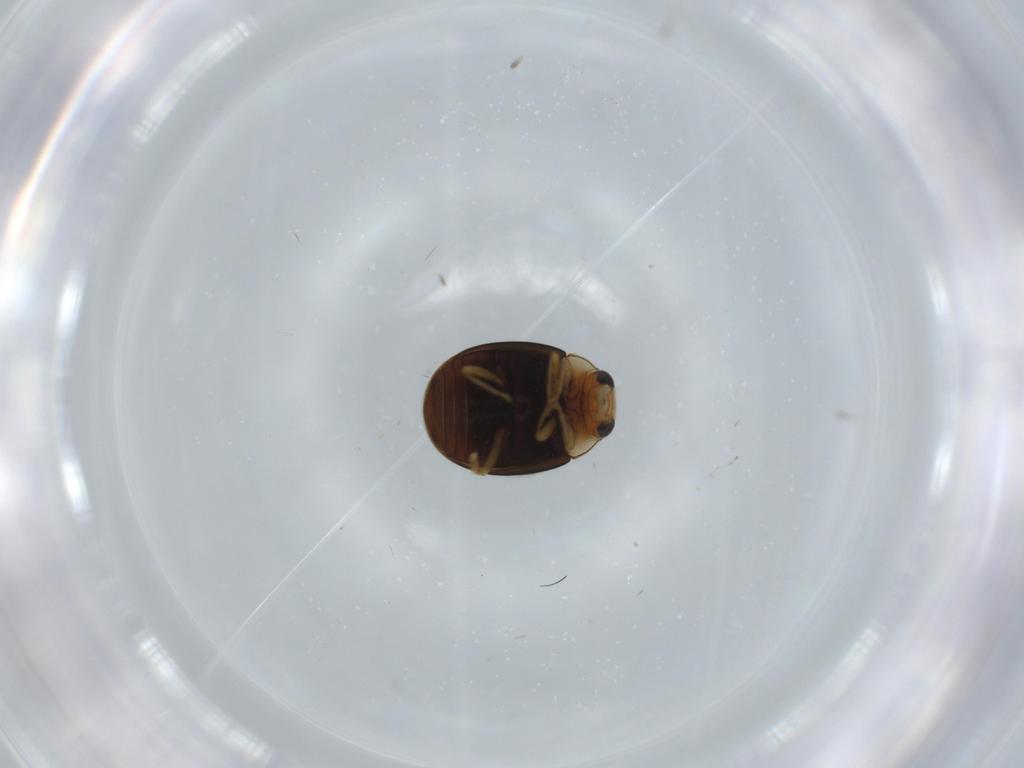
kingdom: Animalia
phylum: Arthropoda
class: Insecta
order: Coleoptera
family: Coccinellidae
